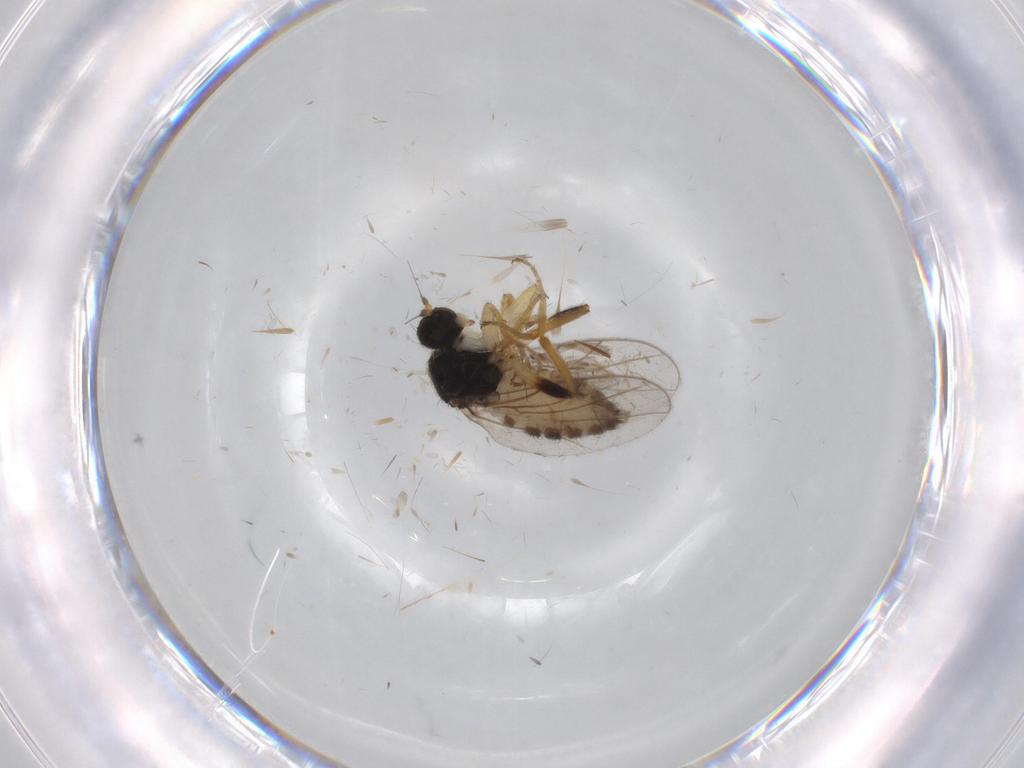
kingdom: Animalia
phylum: Arthropoda
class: Insecta
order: Diptera
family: Hybotidae
